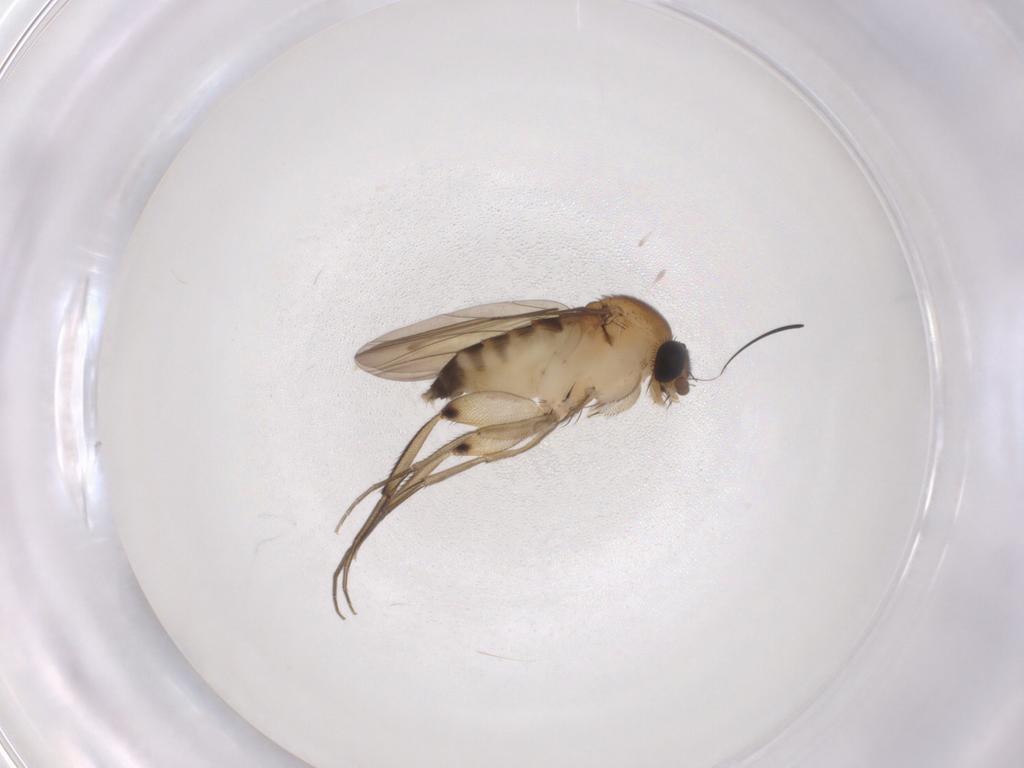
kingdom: Animalia
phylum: Arthropoda
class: Insecta
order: Diptera
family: Phoridae
